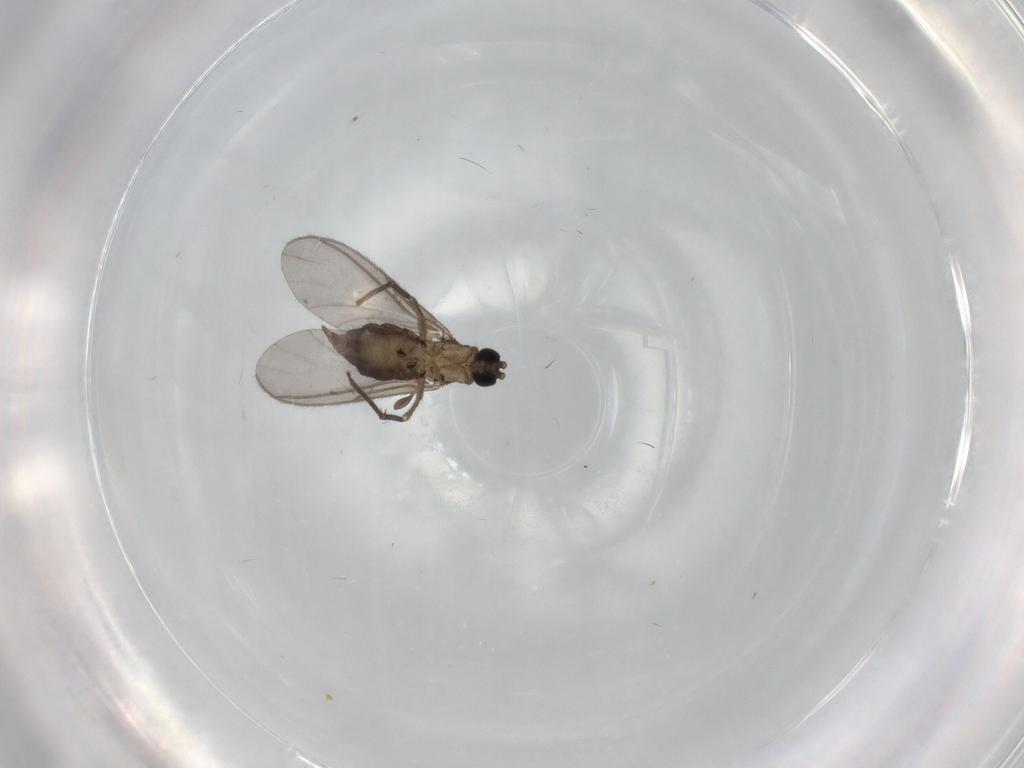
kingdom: Animalia
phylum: Arthropoda
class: Insecta
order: Diptera
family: Sciaridae
